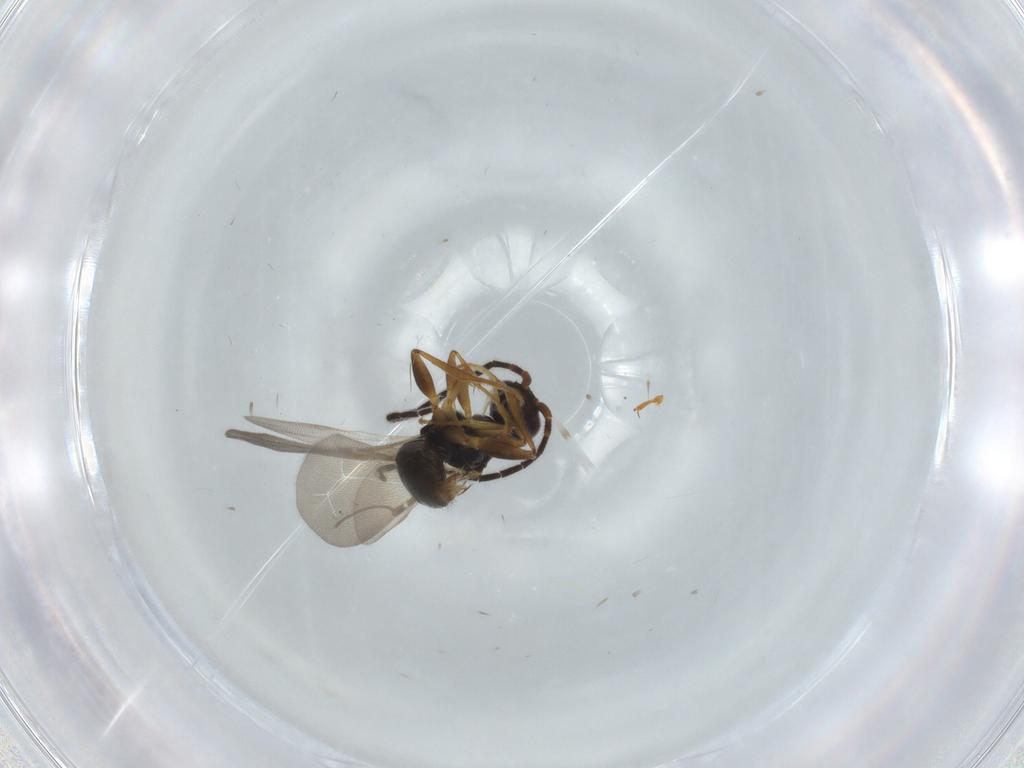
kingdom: Animalia
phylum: Arthropoda
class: Insecta
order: Hymenoptera
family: Bethylidae
